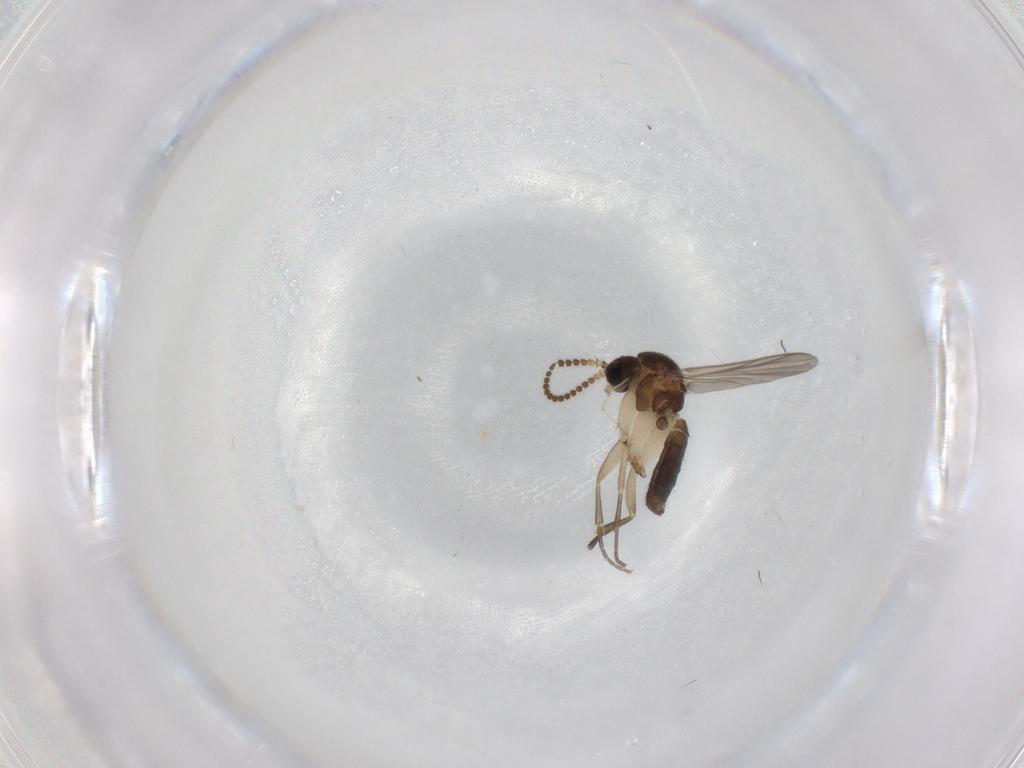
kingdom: Animalia
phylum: Arthropoda
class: Insecta
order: Diptera
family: Mycetophilidae
